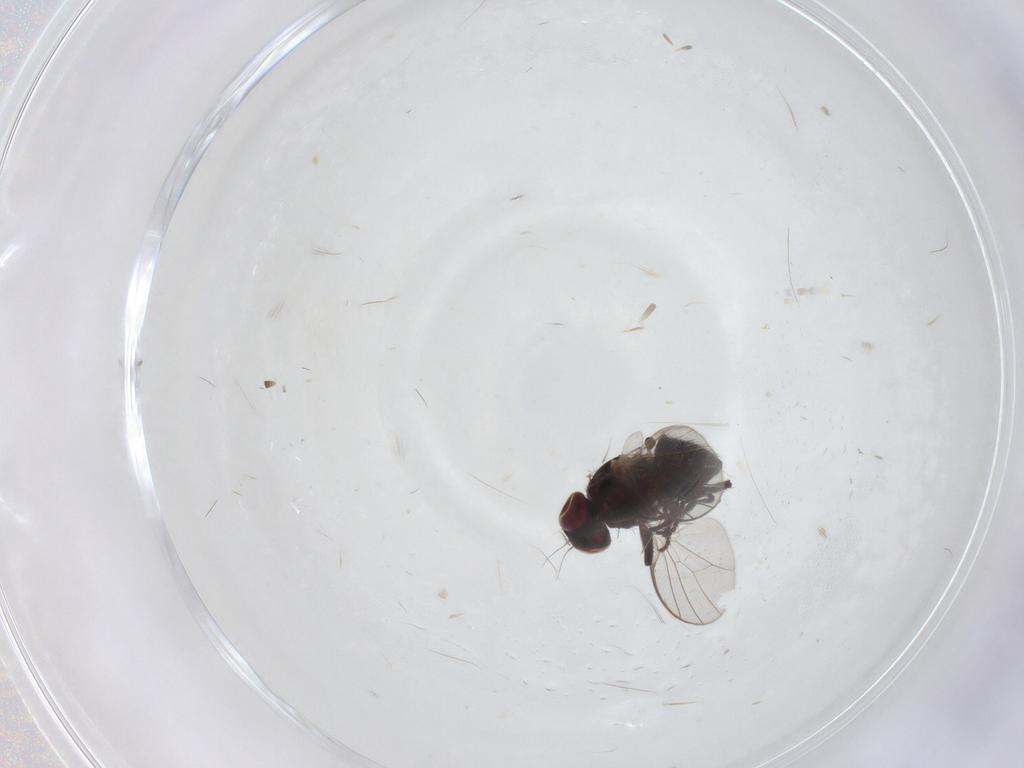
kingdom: Animalia
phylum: Arthropoda
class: Insecta
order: Diptera
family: Agromyzidae
